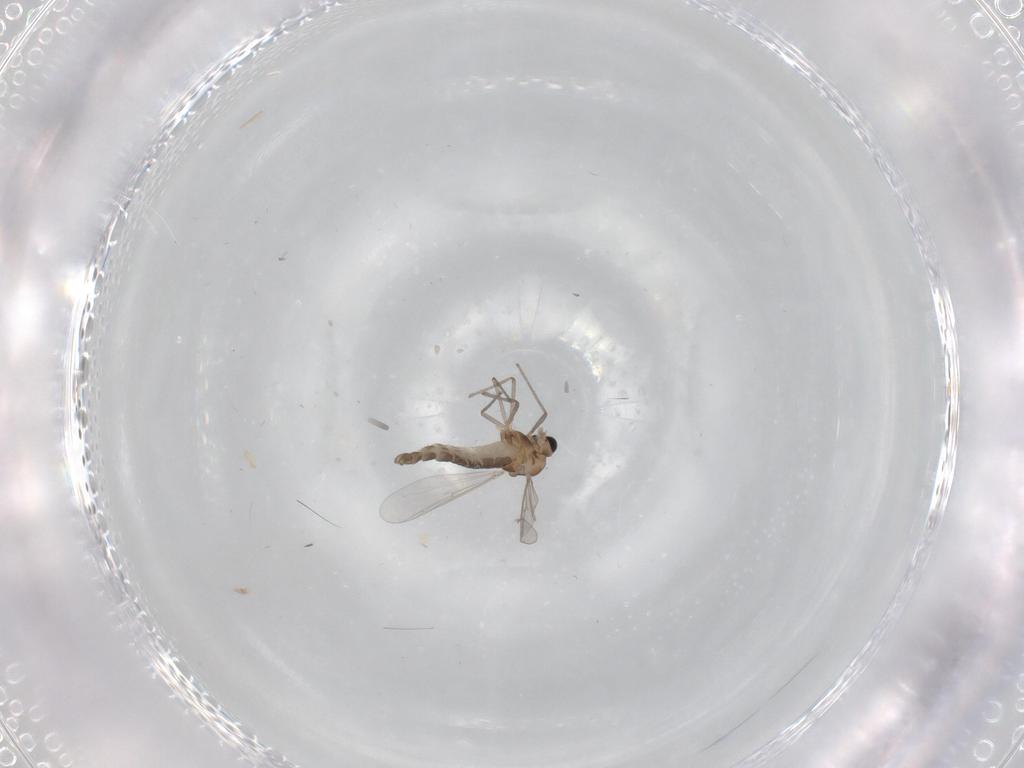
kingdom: Animalia
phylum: Arthropoda
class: Insecta
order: Diptera
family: Chironomidae
